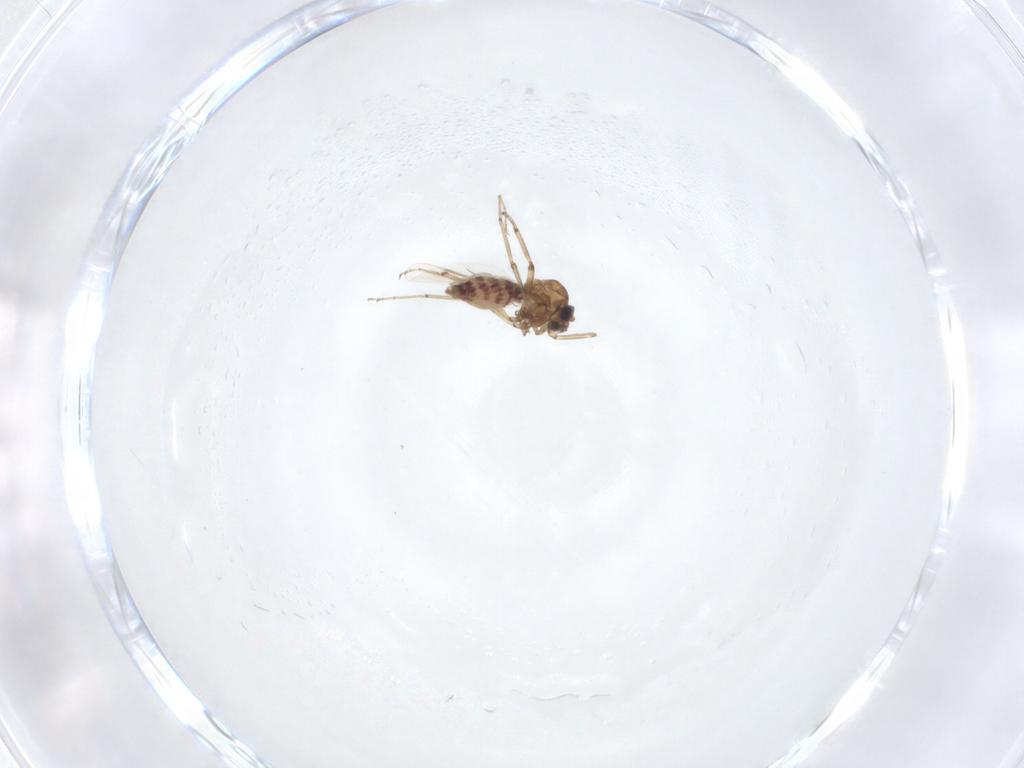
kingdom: Animalia
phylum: Arthropoda
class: Insecta
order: Diptera
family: Ceratopogonidae
